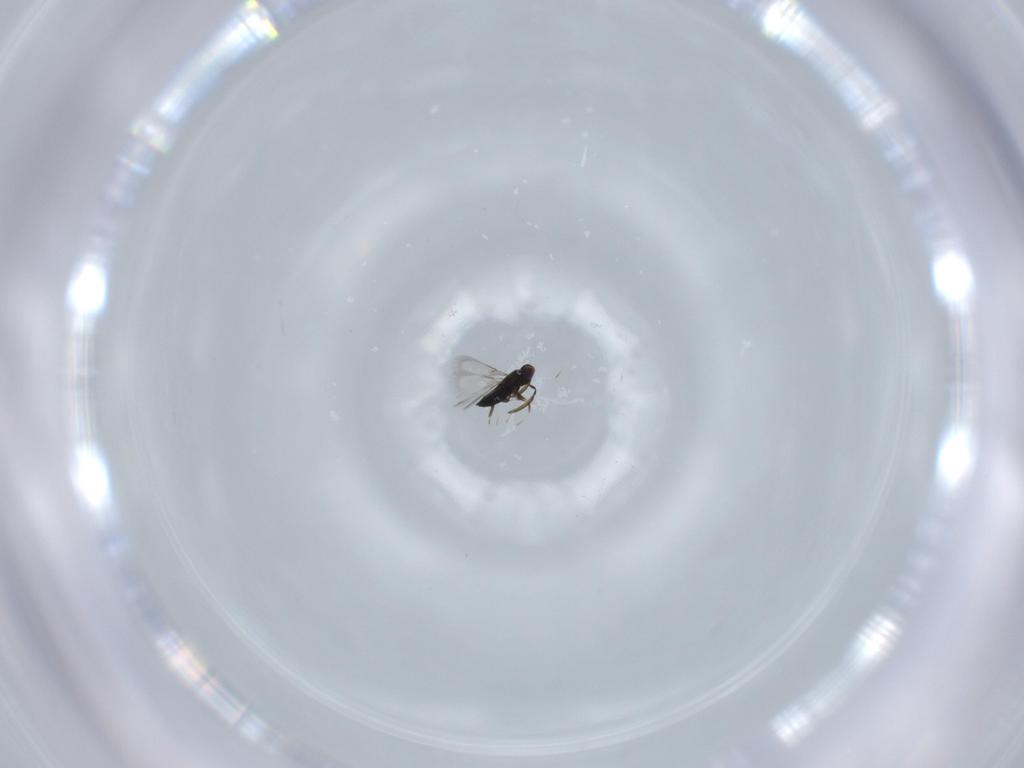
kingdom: Animalia
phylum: Arthropoda
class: Insecta
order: Hymenoptera
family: Signiphoridae
